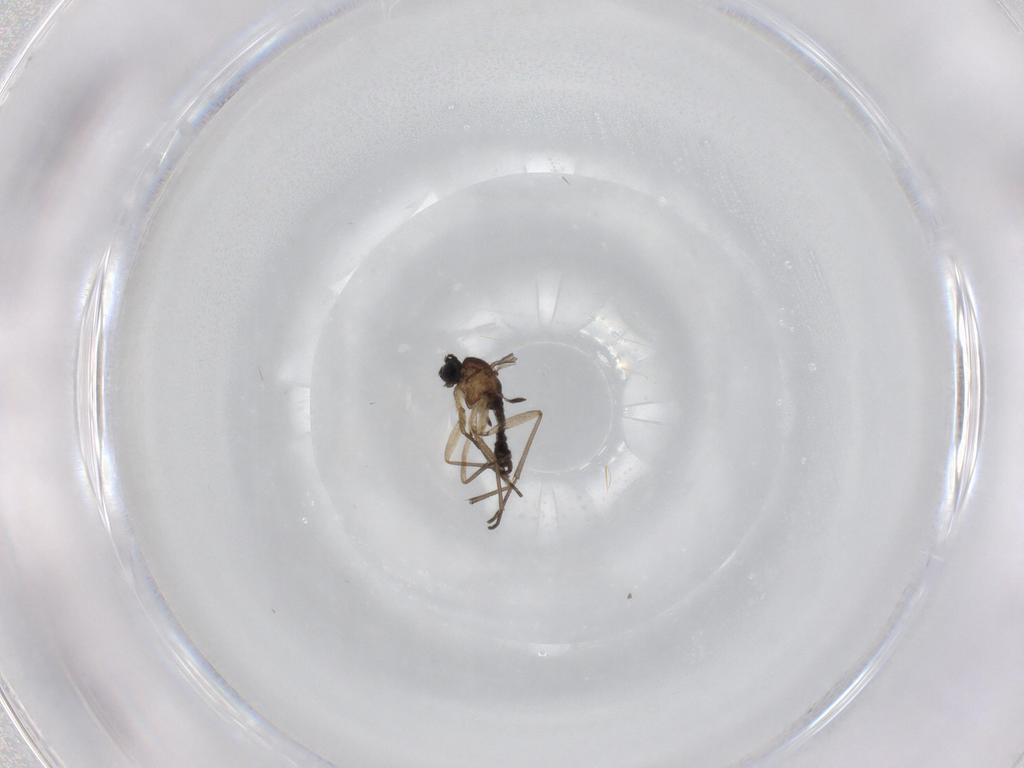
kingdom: Animalia
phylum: Arthropoda
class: Insecta
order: Diptera
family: Sciaridae
